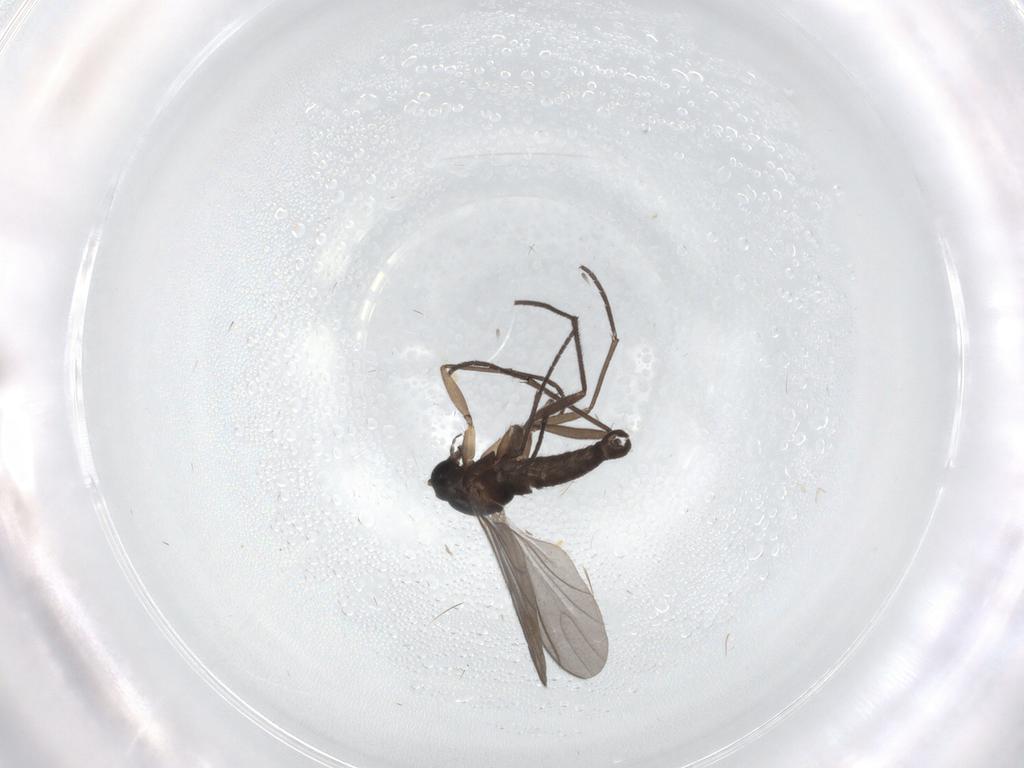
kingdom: Animalia
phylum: Arthropoda
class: Insecta
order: Diptera
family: Sciaridae
